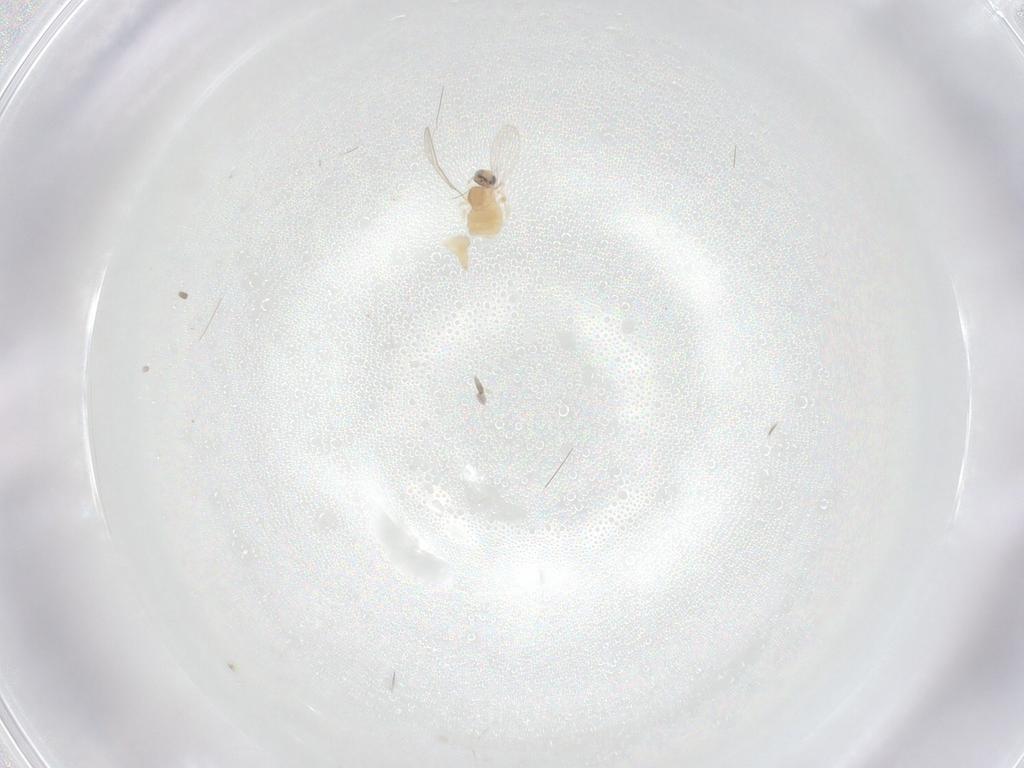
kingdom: Animalia
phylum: Arthropoda
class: Insecta
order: Diptera
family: Cecidomyiidae
